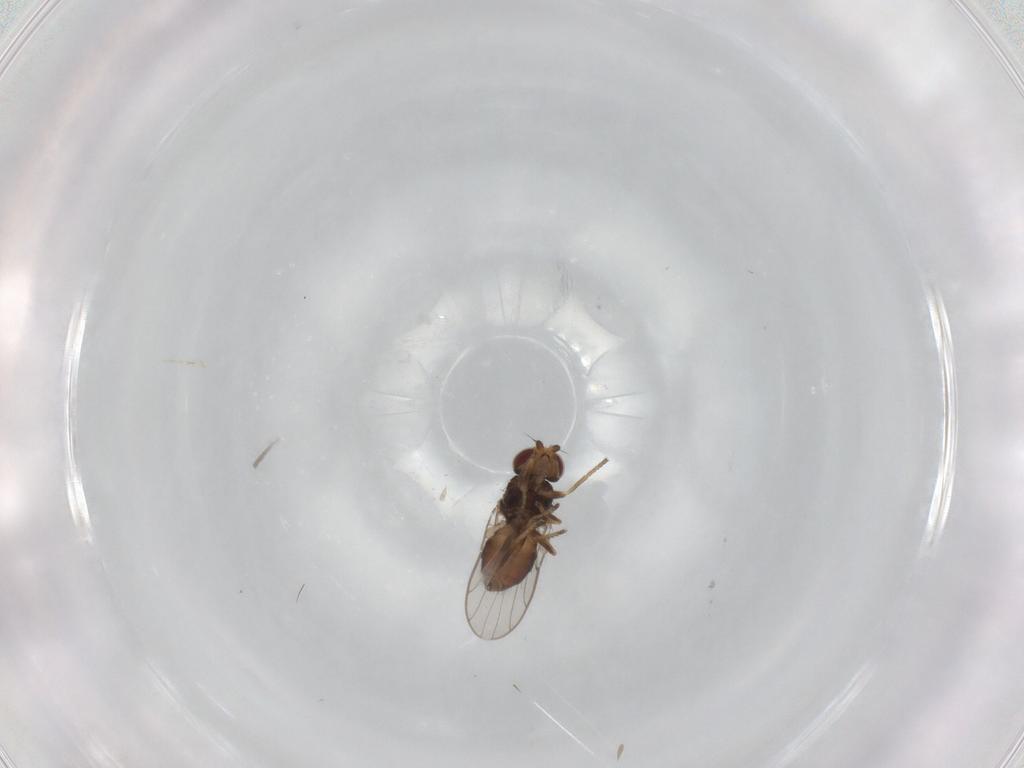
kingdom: Animalia
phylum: Arthropoda
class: Insecta
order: Diptera
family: Chloropidae
